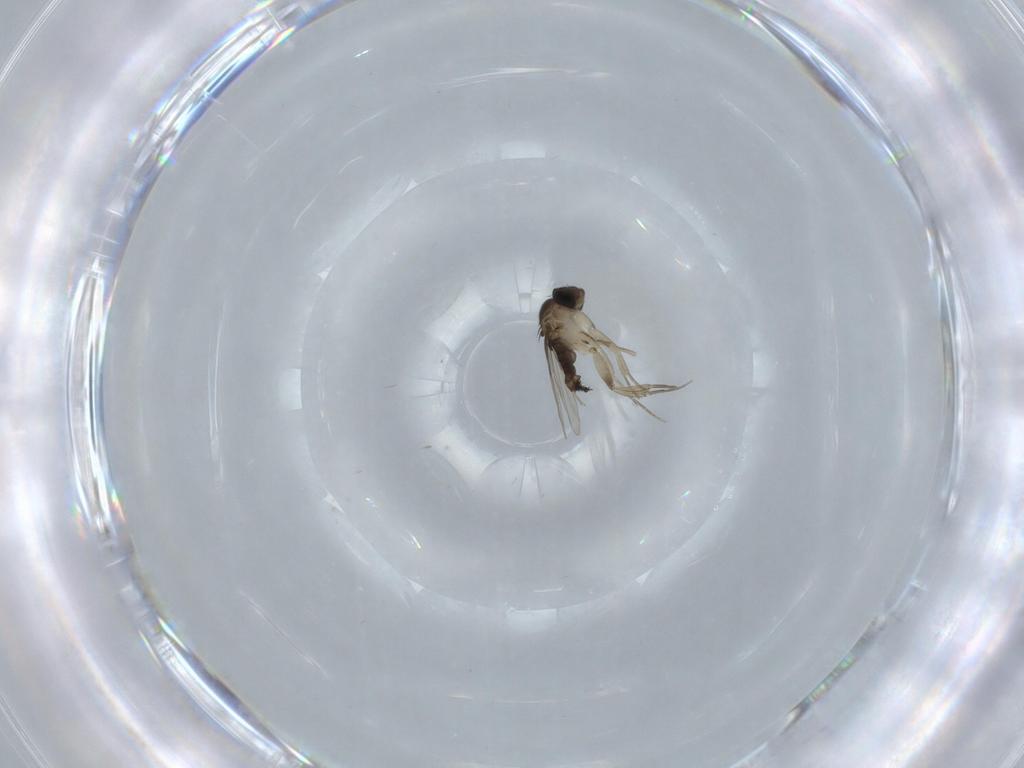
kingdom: Animalia
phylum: Arthropoda
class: Insecta
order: Diptera
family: Phoridae
